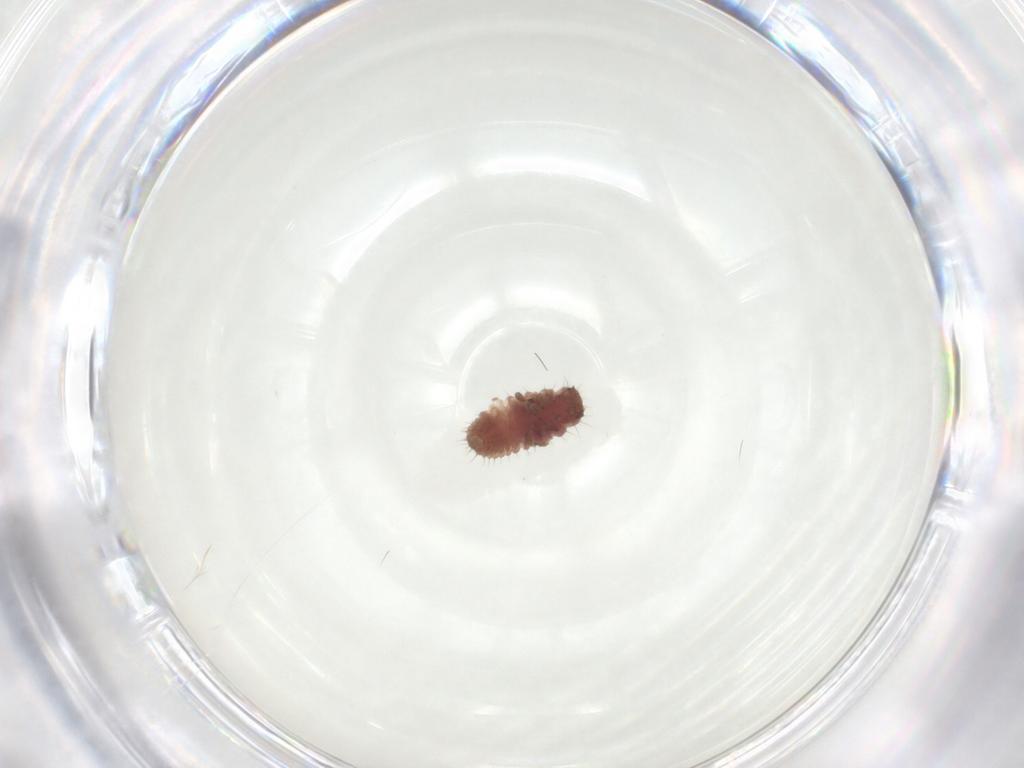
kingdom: Animalia
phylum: Arthropoda
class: Insecta
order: Coleoptera
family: Coccinellidae
